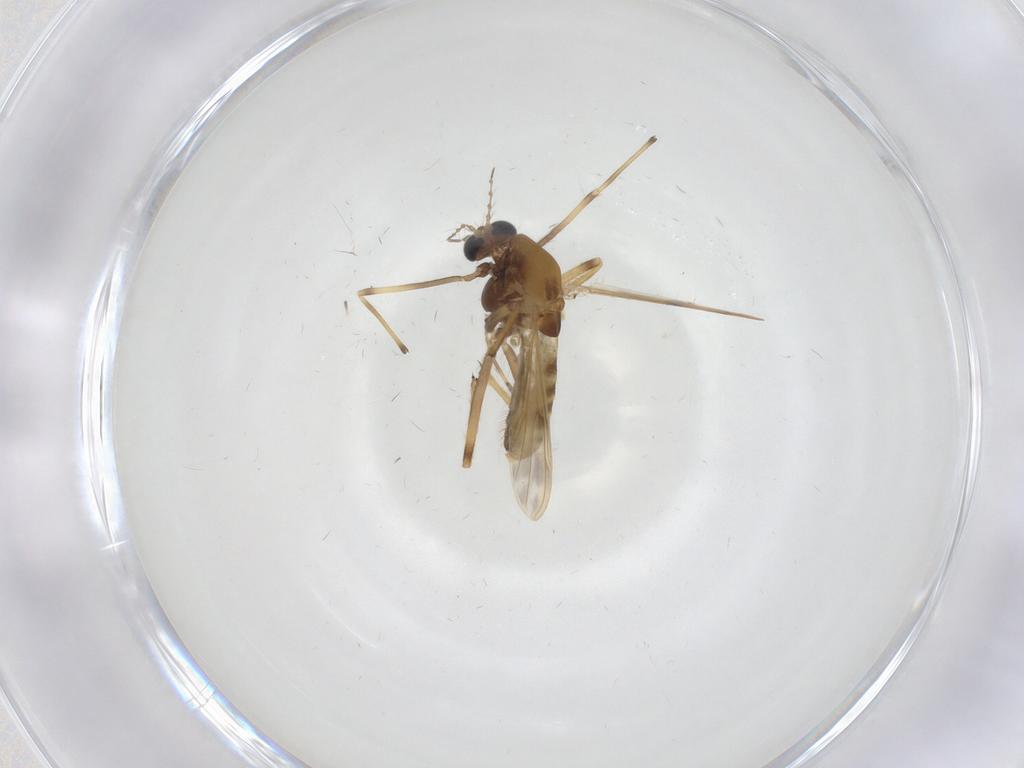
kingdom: Animalia
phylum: Arthropoda
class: Insecta
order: Diptera
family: Chironomidae
